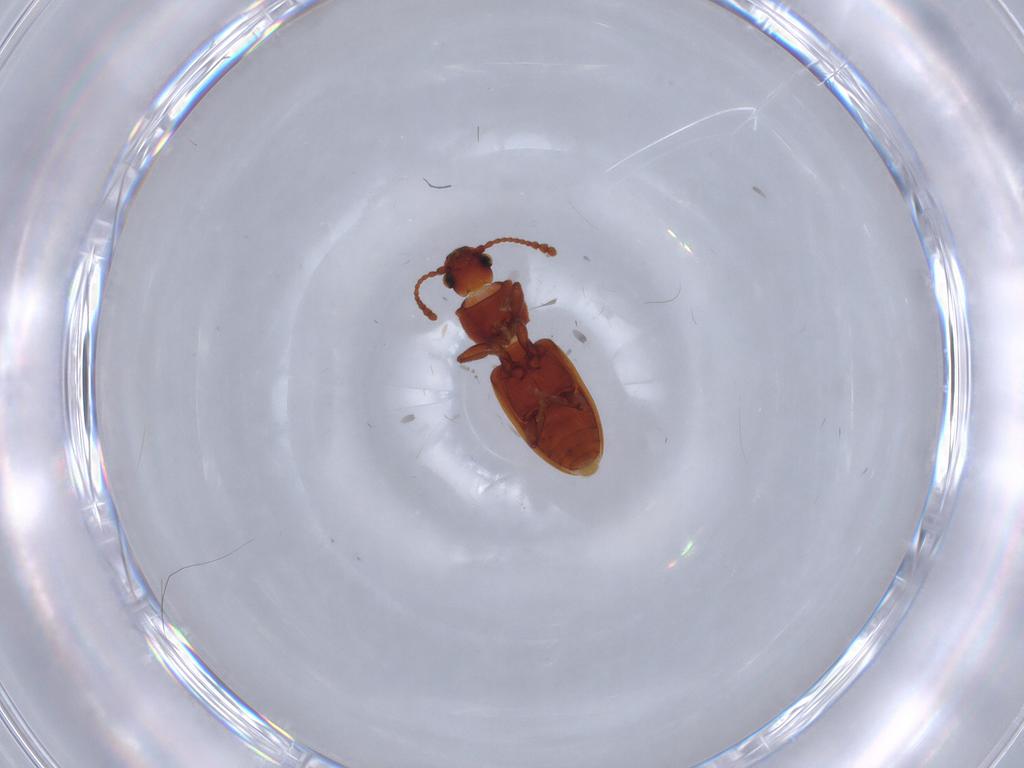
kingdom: Animalia
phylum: Arthropoda
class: Insecta
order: Coleoptera
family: Silvanidae
